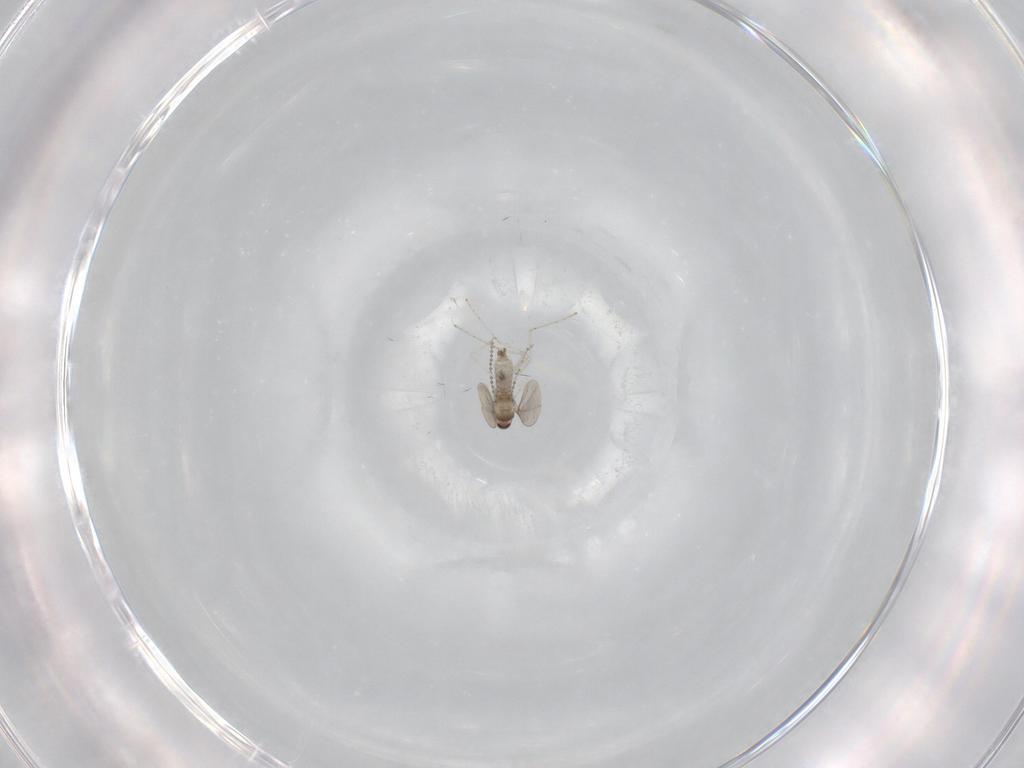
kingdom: Animalia
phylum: Arthropoda
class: Insecta
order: Diptera
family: Cecidomyiidae
